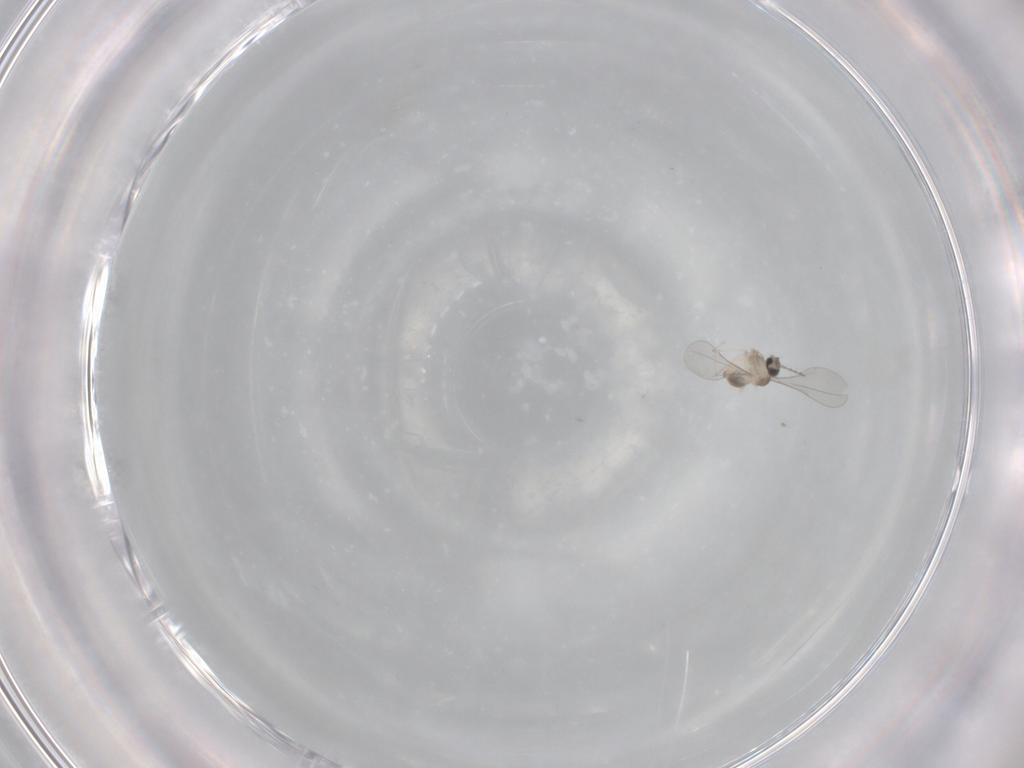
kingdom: Animalia
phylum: Arthropoda
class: Insecta
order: Diptera
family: Cecidomyiidae
